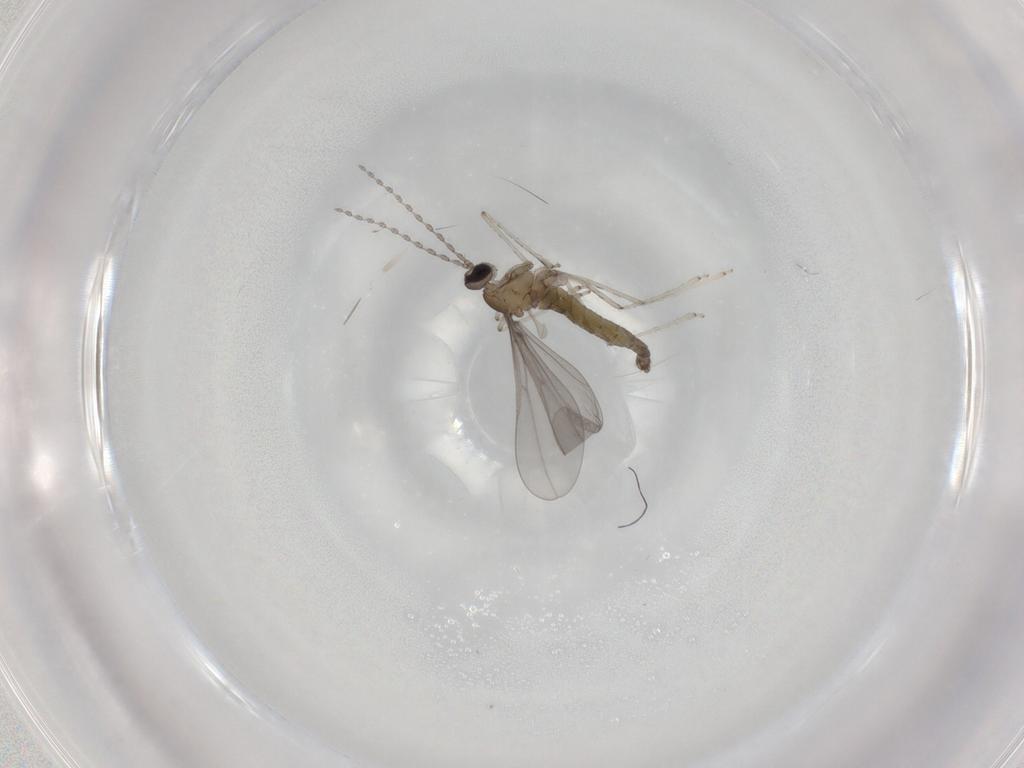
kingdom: Animalia
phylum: Arthropoda
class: Insecta
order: Diptera
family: Cecidomyiidae
